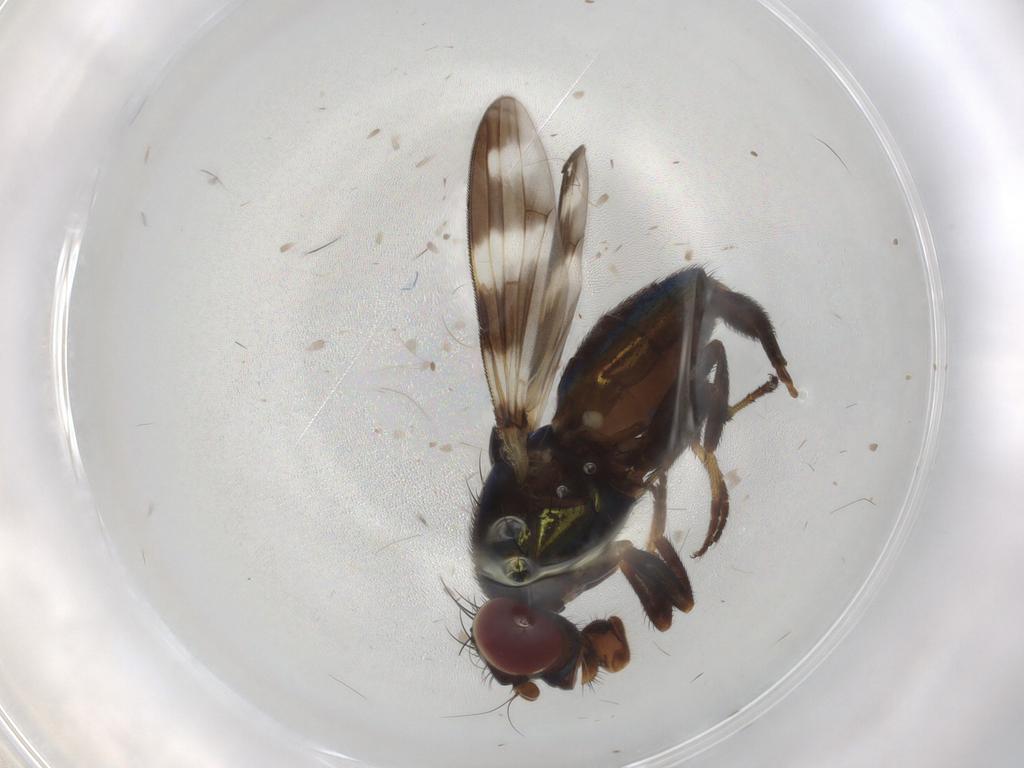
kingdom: Animalia
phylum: Arthropoda
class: Insecta
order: Diptera
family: Ulidiidae
